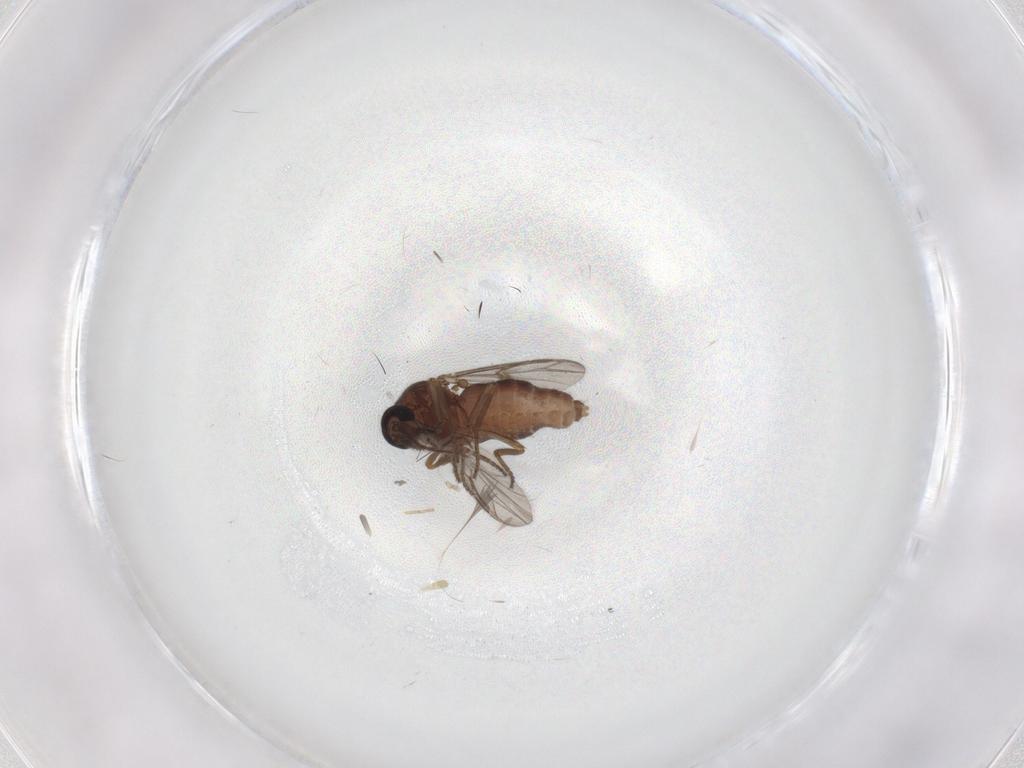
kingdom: Animalia
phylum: Arthropoda
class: Insecta
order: Diptera
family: Ceratopogonidae
